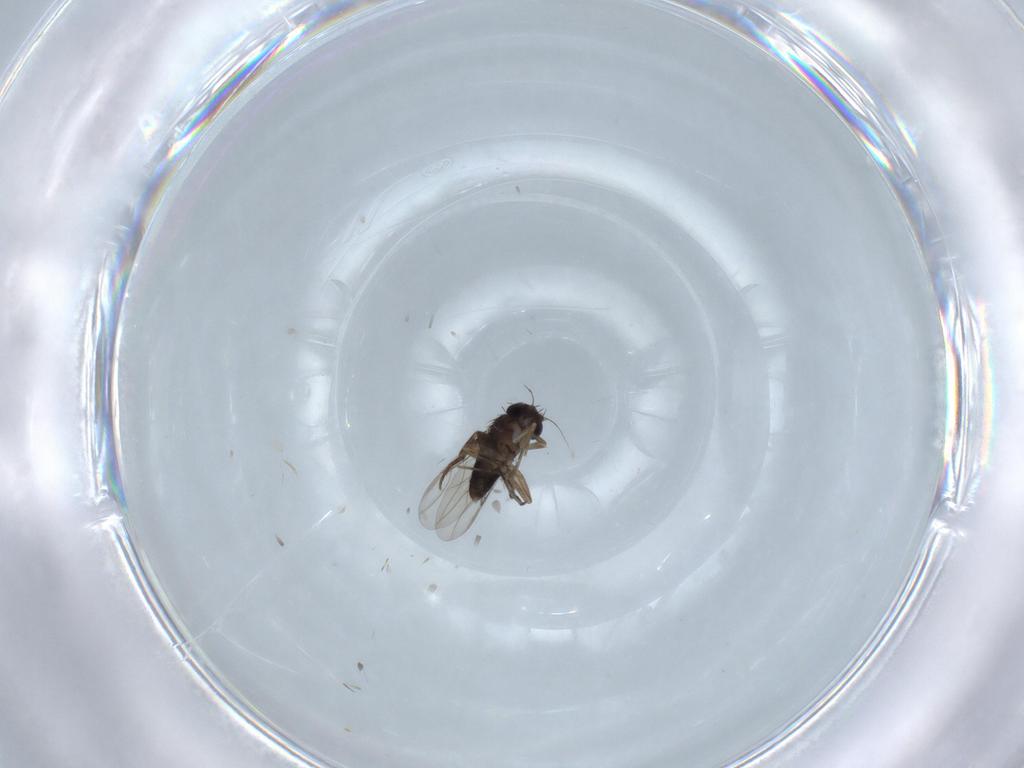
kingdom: Animalia
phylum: Arthropoda
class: Insecta
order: Diptera
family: Phoridae
